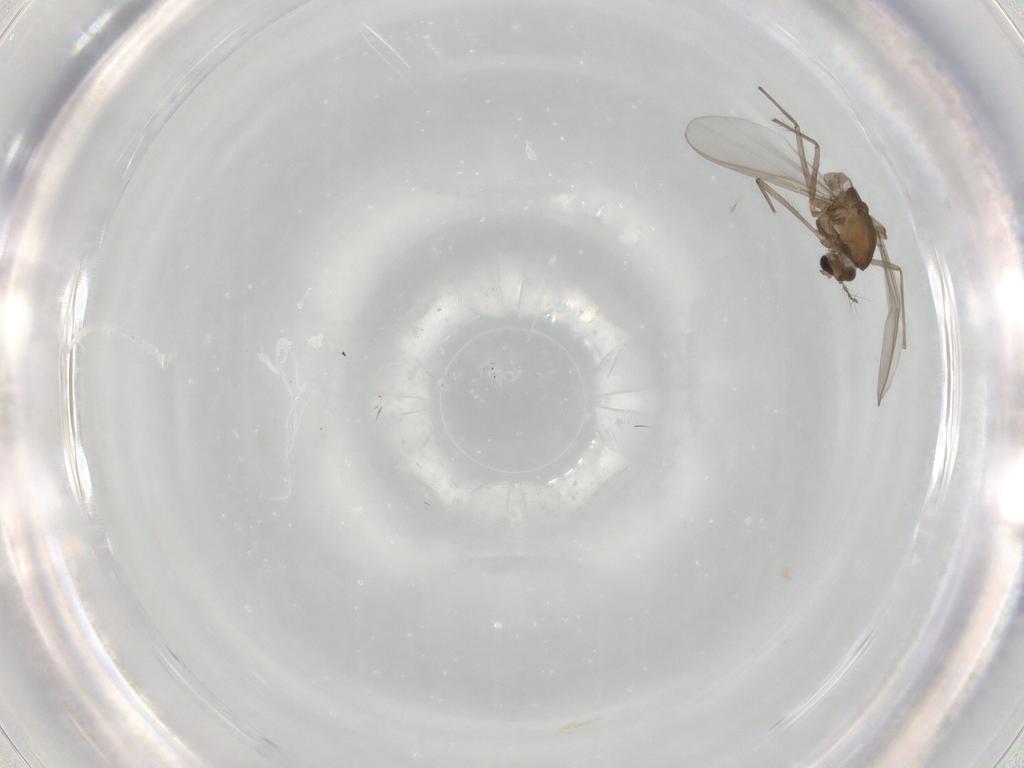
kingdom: Animalia
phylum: Arthropoda
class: Insecta
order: Diptera
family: Chironomidae
